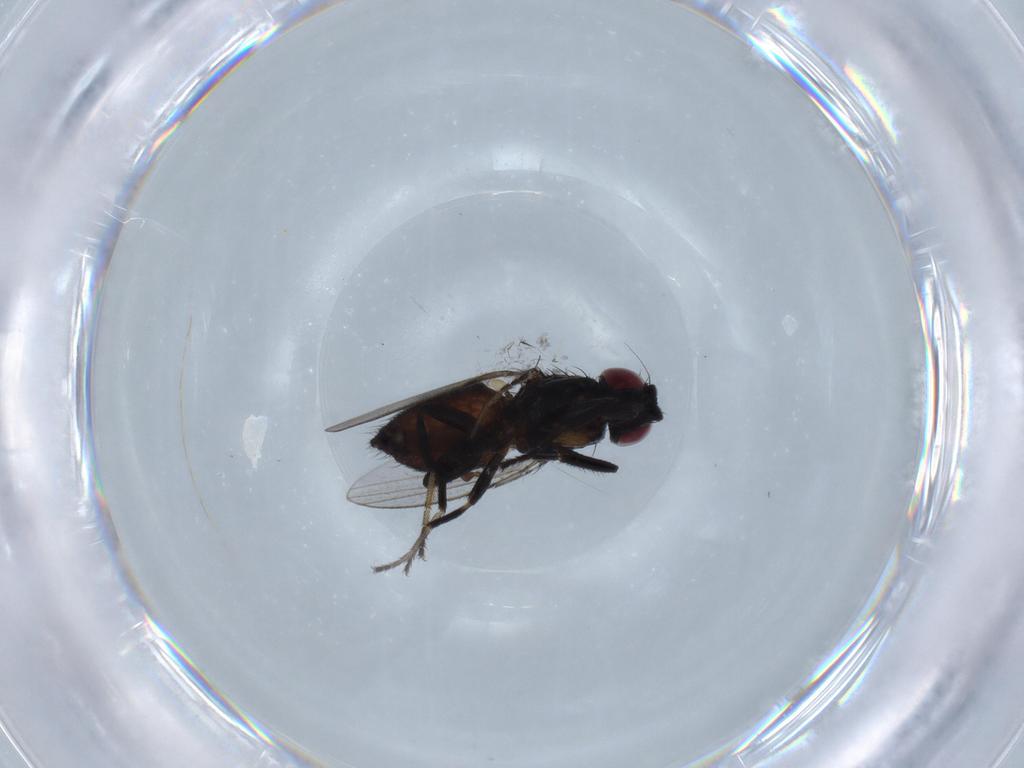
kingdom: Animalia
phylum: Arthropoda
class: Insecta
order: Diptera
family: Milichiidae
